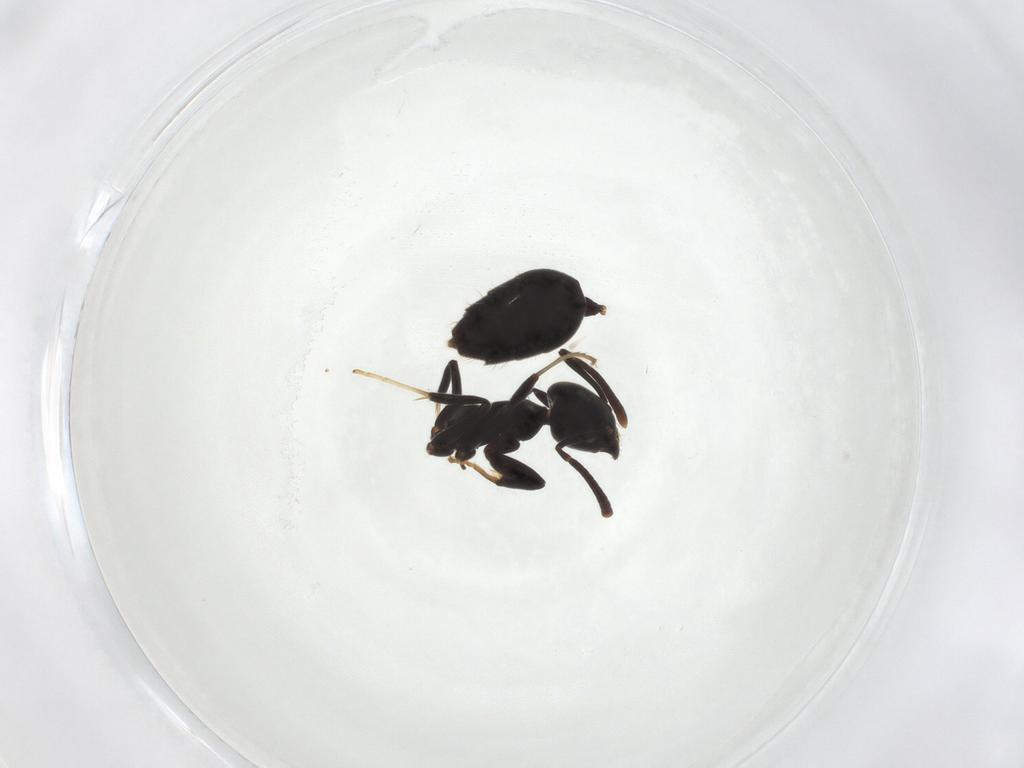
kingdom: Animalia
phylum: Arthropoda
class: Insecta
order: Hymenoptera
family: Formicidae
